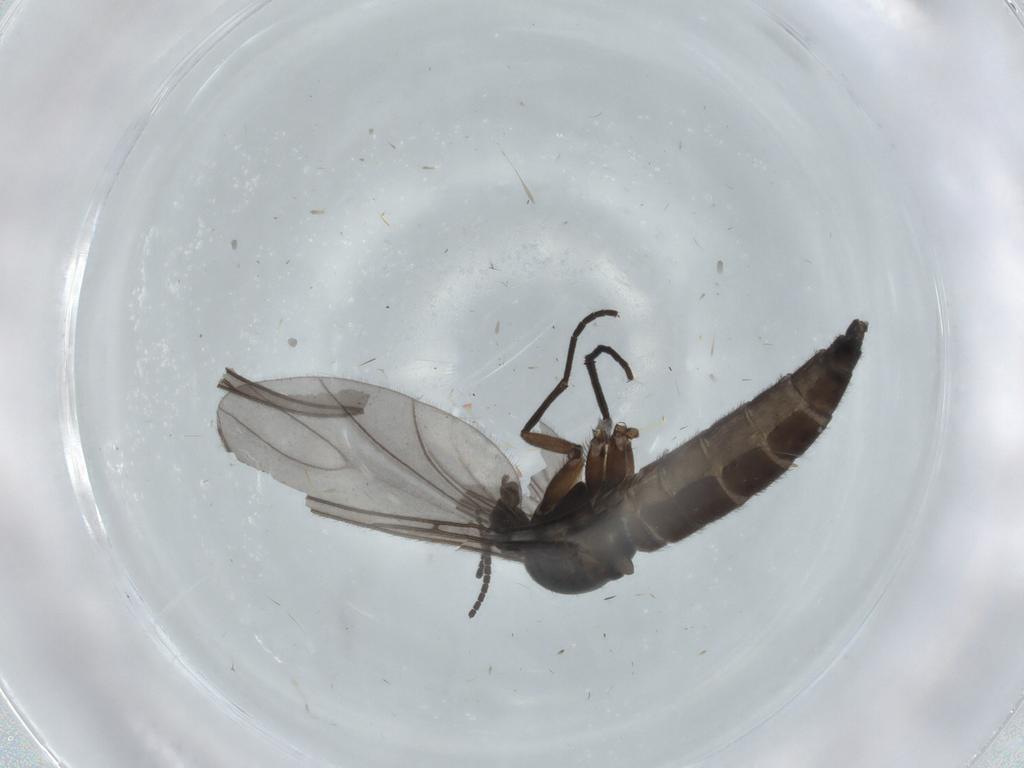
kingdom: Animalia
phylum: Arthropoda
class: Insecta
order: Diptera
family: Sciaridae
